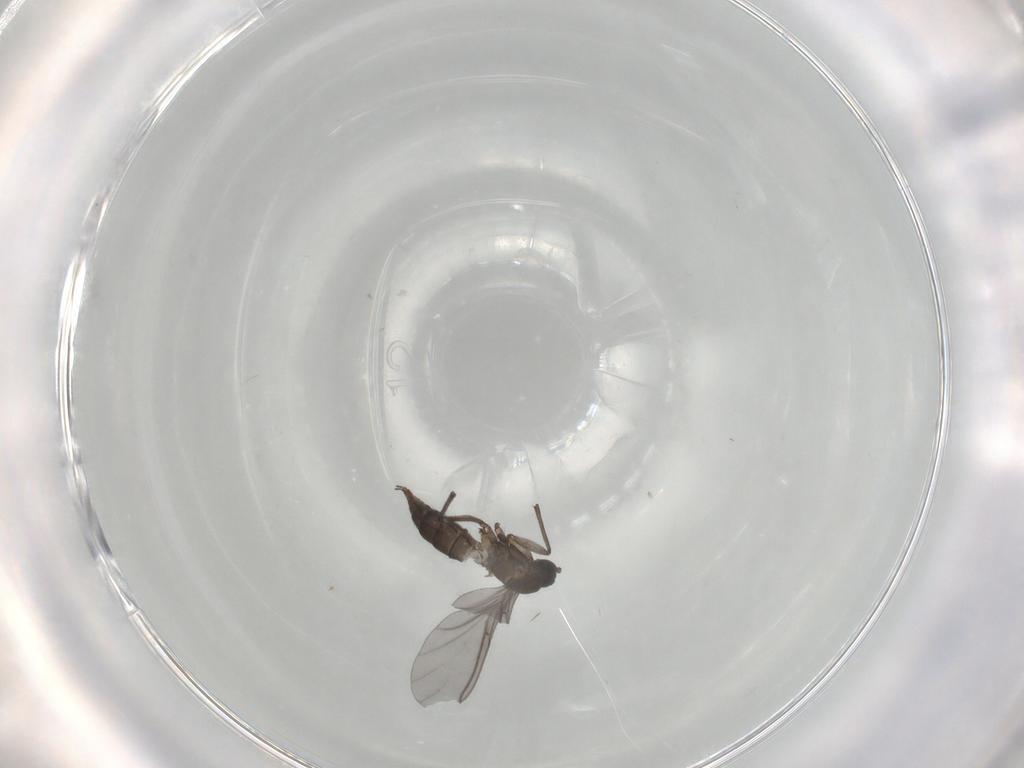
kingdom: Animalia
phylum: Arthropoda
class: Insecta
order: Diptera
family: Sciaridae
